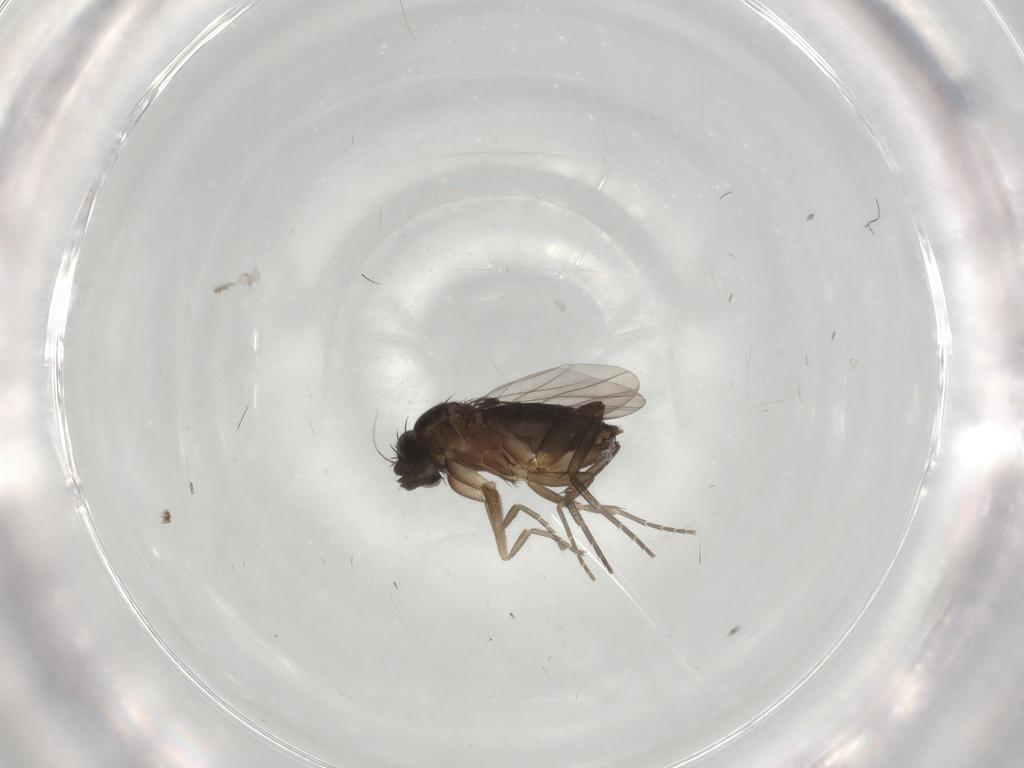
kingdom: Animalia
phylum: Arthropoda
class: Insecta
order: Diptera
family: Phoridae
